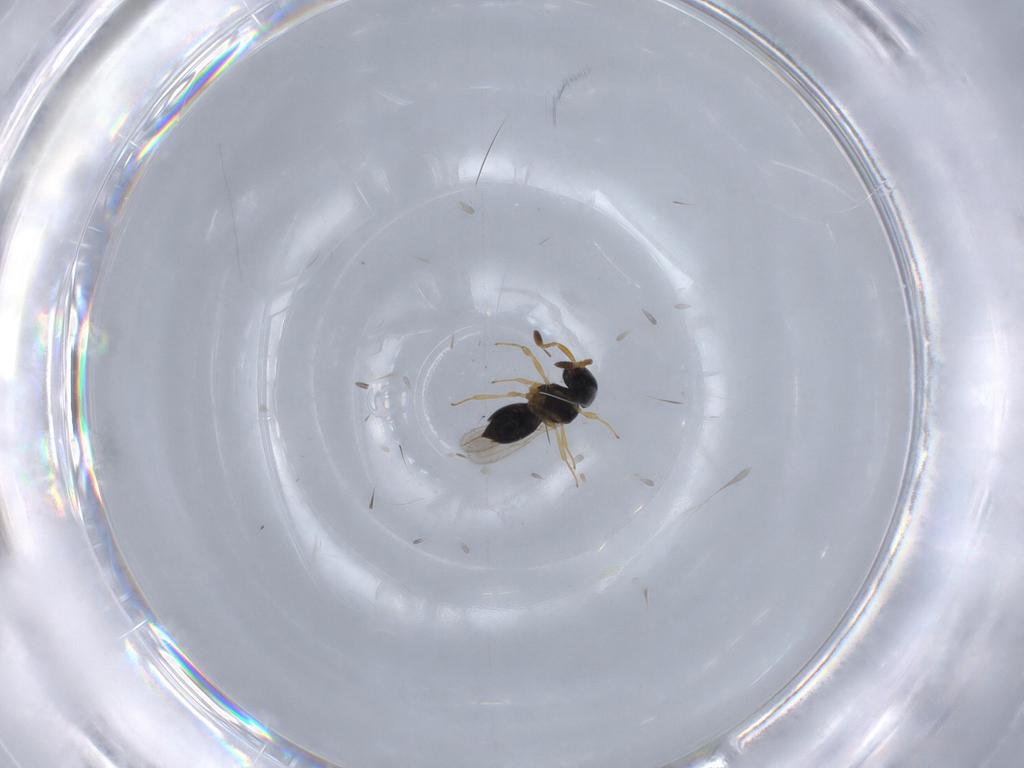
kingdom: Animalia
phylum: Arthropoda
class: Insecta
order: Hymenoptera
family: Scelionidae
